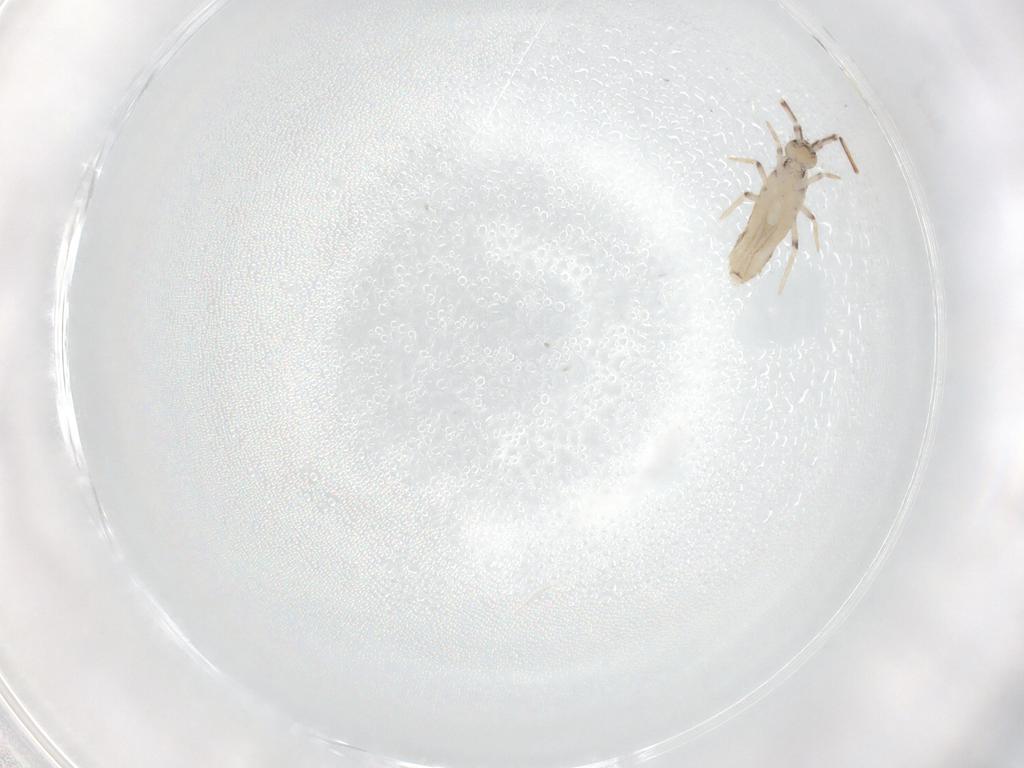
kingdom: Animalia
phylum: Arthropoda
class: Collembola
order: Entomobryomorpha
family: Entomobryidae
